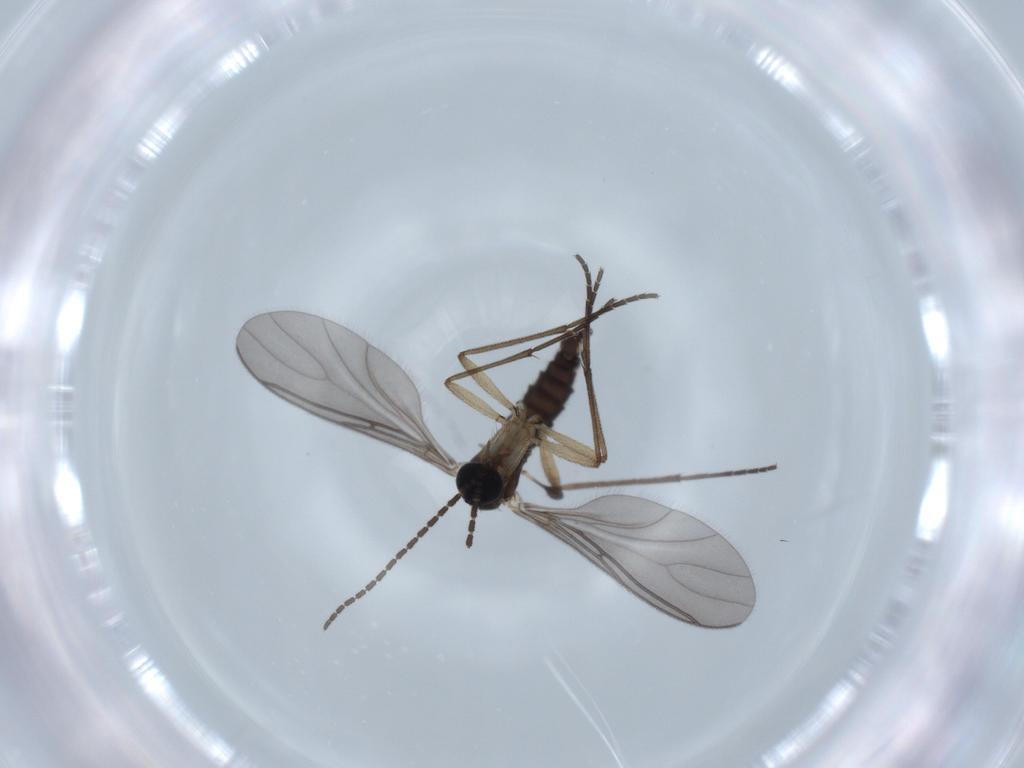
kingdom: Animalia
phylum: Arthropoda
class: Insecta
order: Diptera
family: Sciaridae
